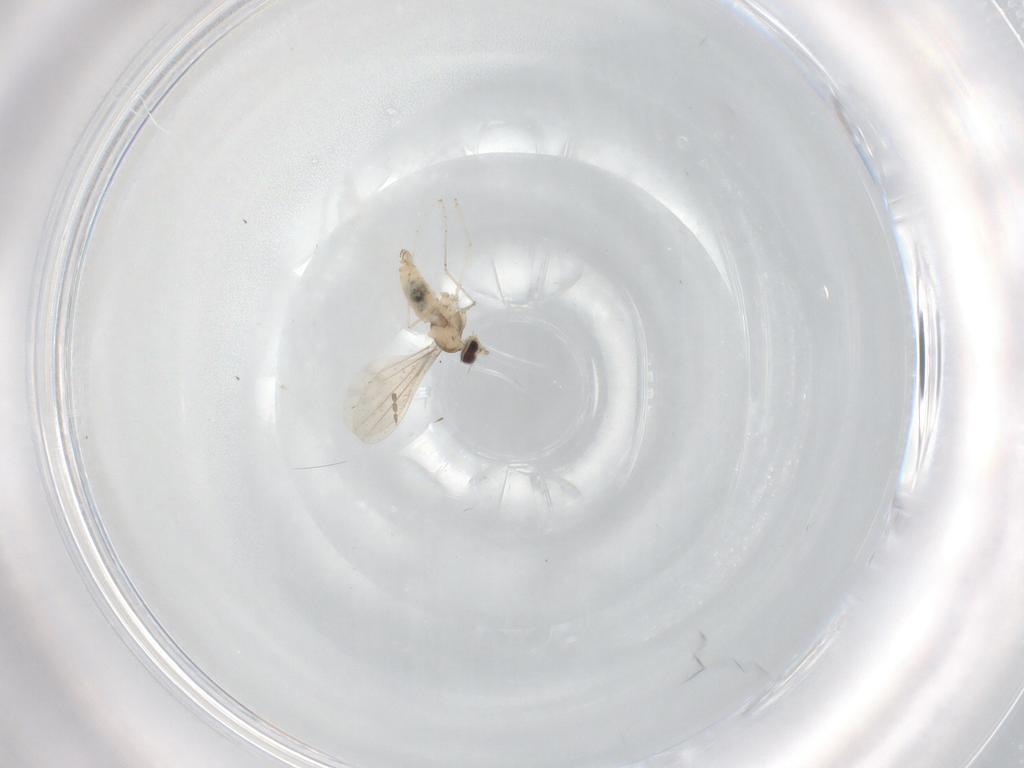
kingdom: Animalia
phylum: Arthropoda
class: Insecta
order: Diptera
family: Cecidomyiidae
